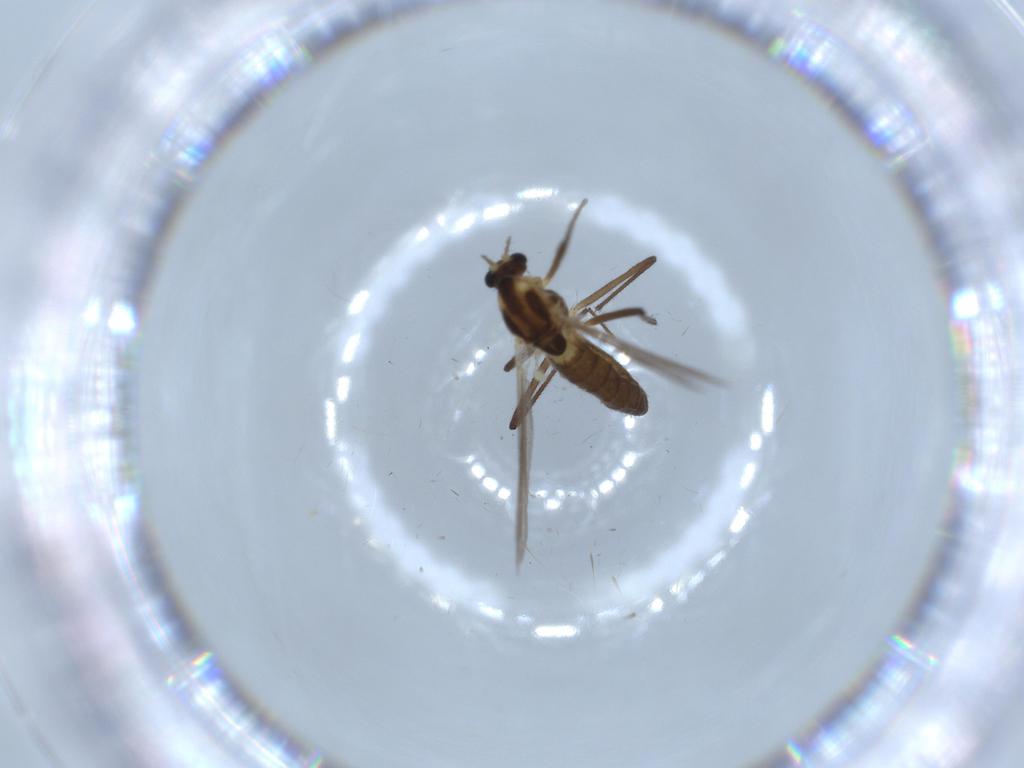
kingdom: Animalia
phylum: Arthropoda
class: Insecta
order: Diptera
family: Chironomidae
